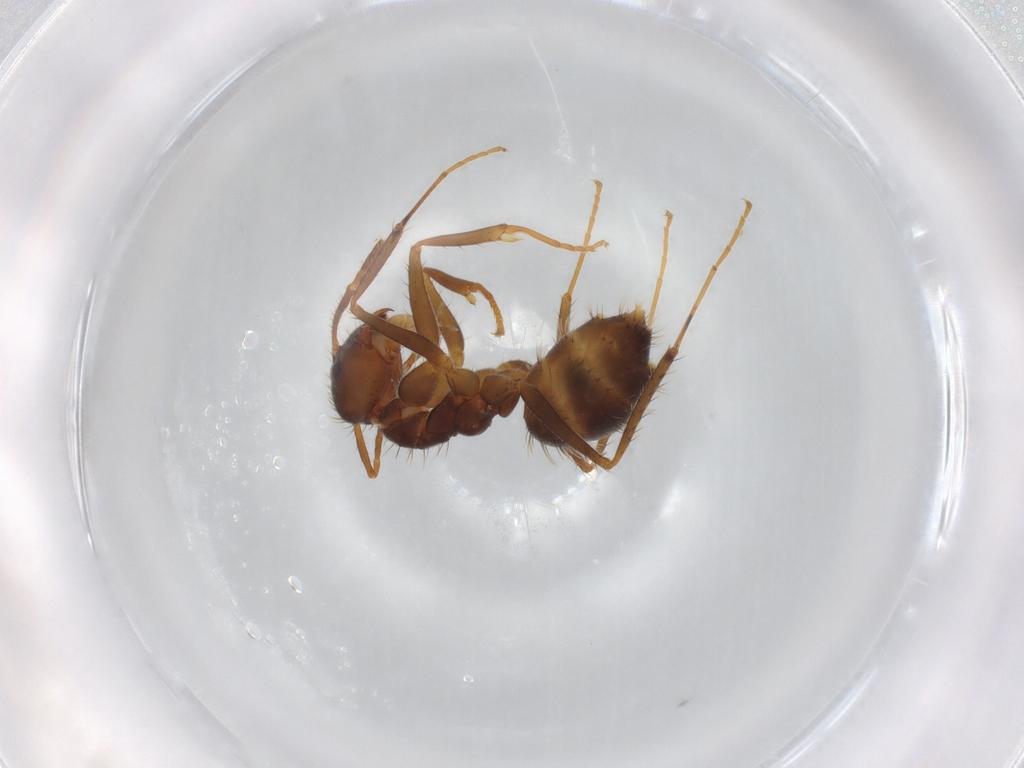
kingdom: Animalia
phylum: Arthropoda
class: Insecta
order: Hymenoptera
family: Formicidae
